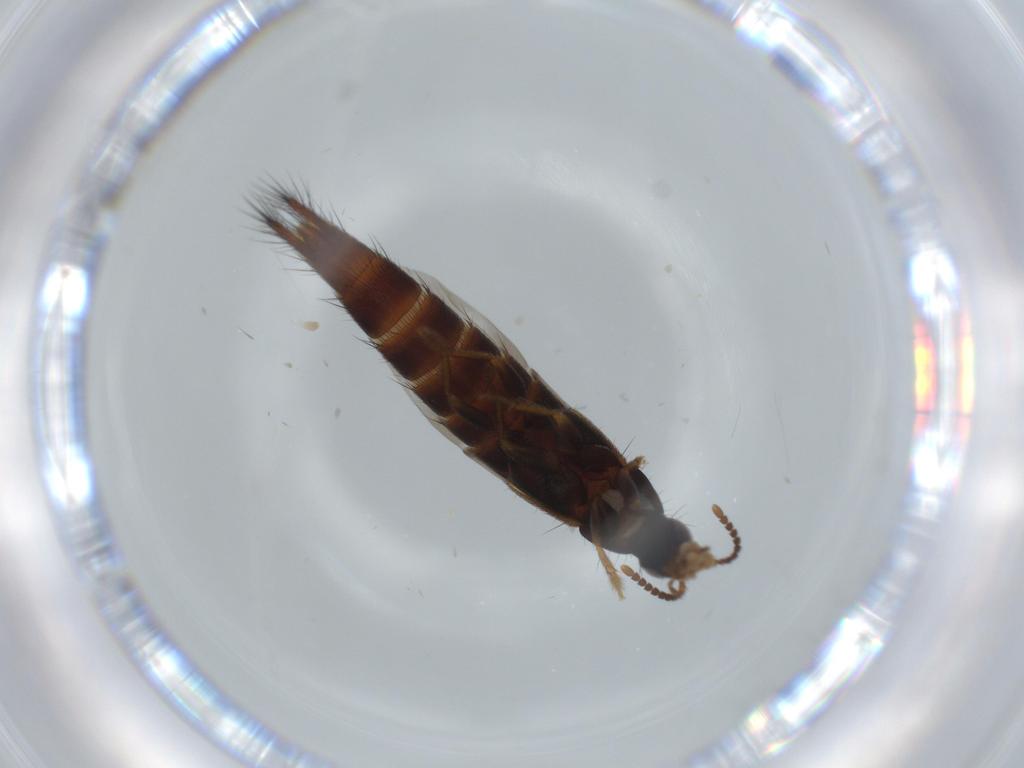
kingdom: Animalia
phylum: Arthropoda
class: Insecta
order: Coleoptera
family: Staphylinidae
